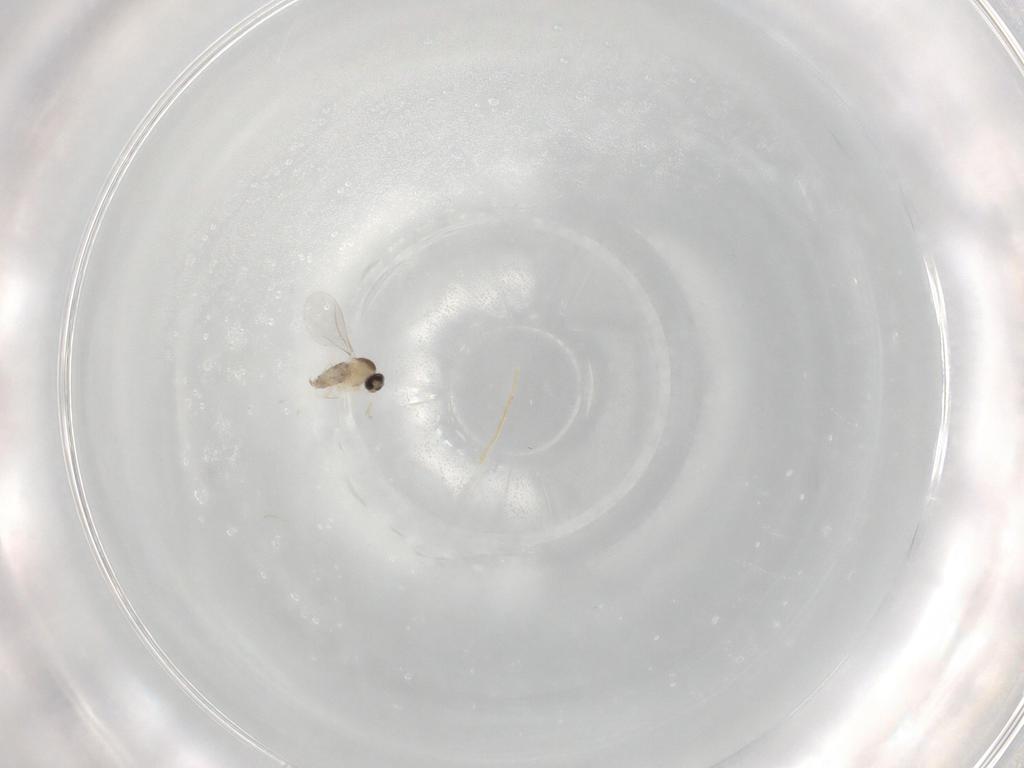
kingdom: Animalia
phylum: Arthropoda
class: Insecta
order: Diptera
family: Cecidomyiidae
